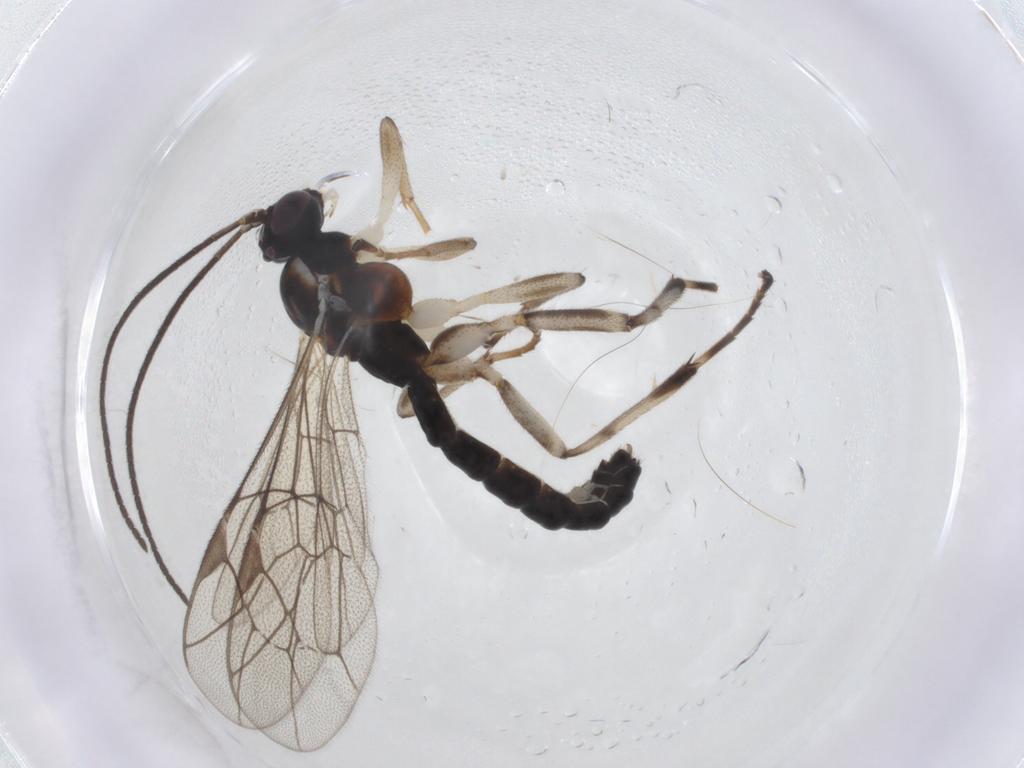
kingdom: Animalia
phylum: Arthropoda
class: Insecta
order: Hymenoptera
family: Ichneumonidae
